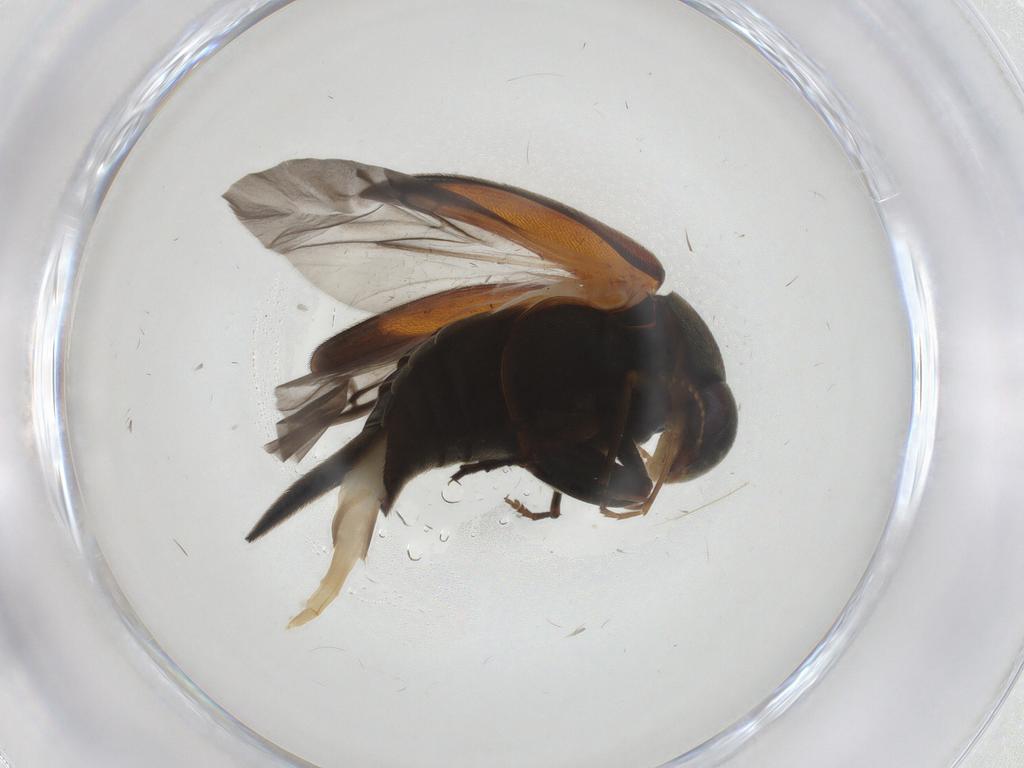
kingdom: Animalia
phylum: Arthropoda
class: Insecta
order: Coleoptera
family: Mordellidae
